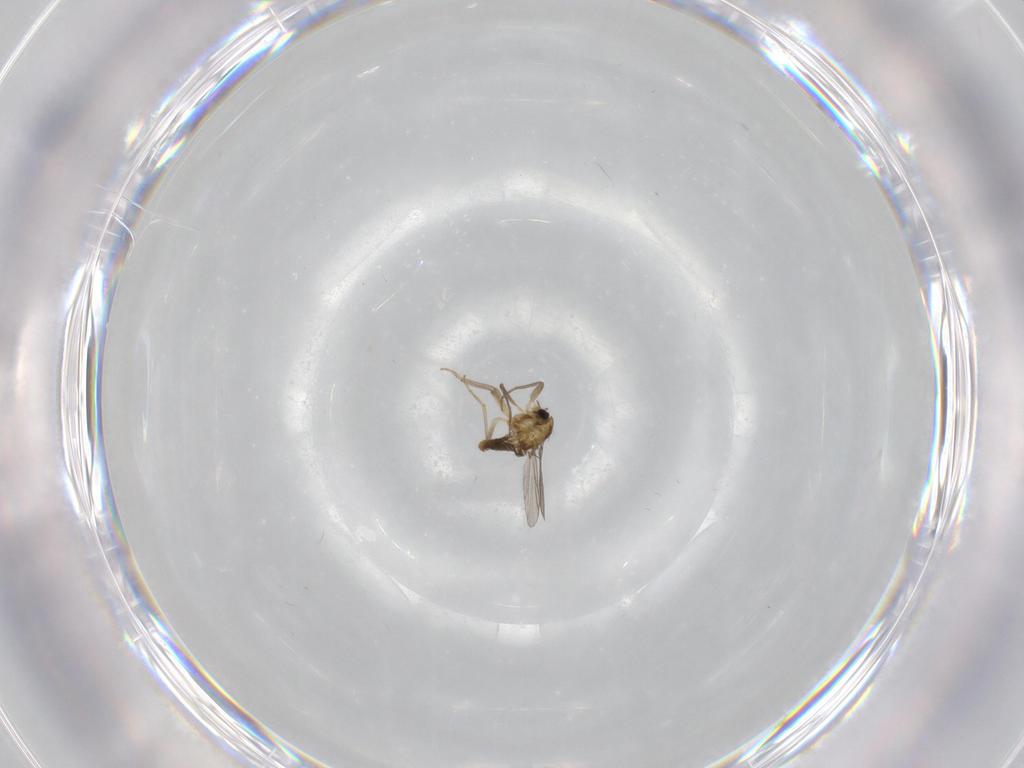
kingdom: Animalia
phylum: Arthropoda
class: Insecta
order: Diptera
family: Chironomidae
